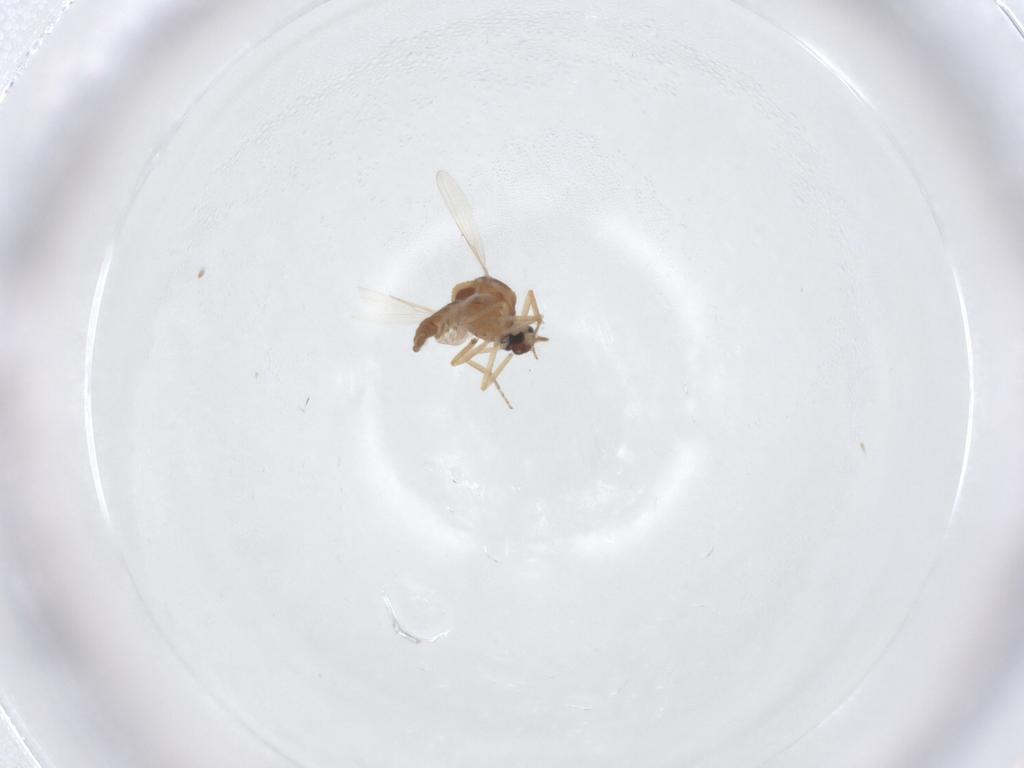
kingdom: Animalia
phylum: Arthropoda
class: Insecta
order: Diptera
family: Ceratopogonidae
